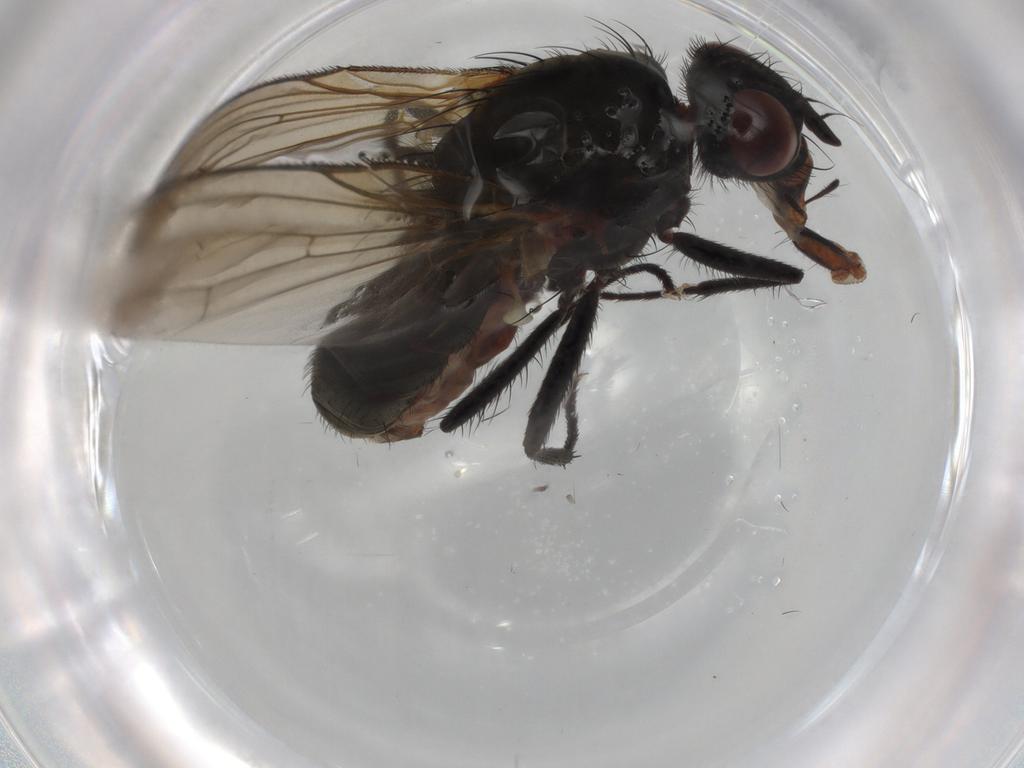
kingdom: Animalia
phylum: Arthropoda
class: Insecta
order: Diptera
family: Anthomyiidae
